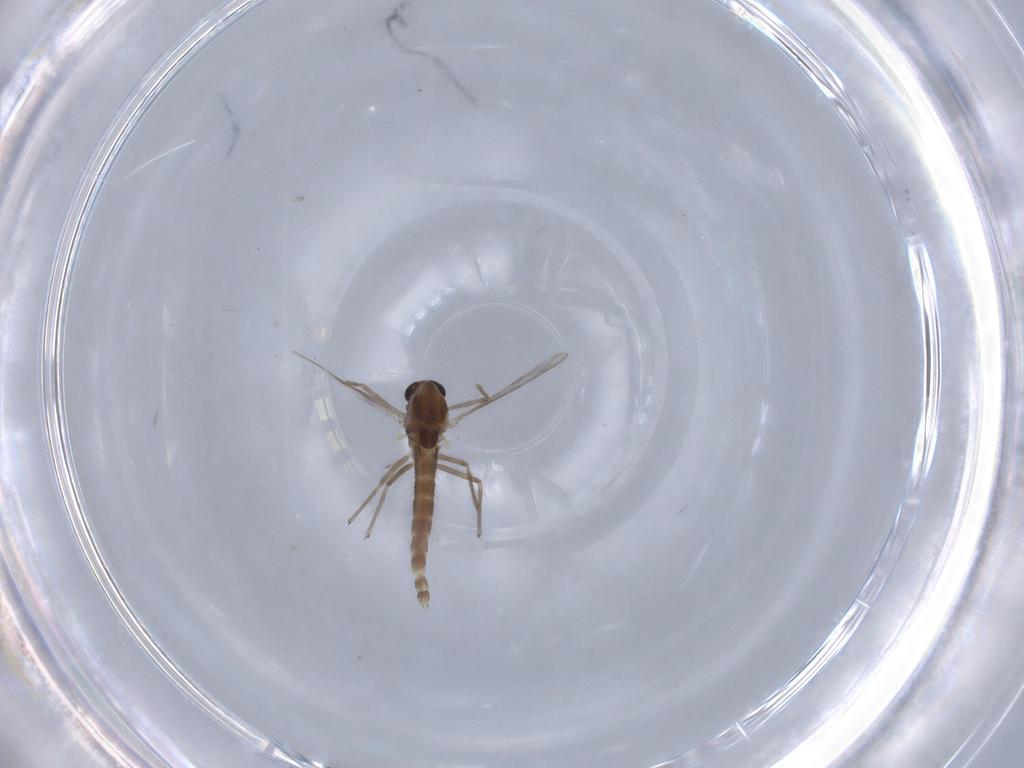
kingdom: Animalia
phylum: Arthropoda
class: Insecta
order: Diptera
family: Chironomidae
